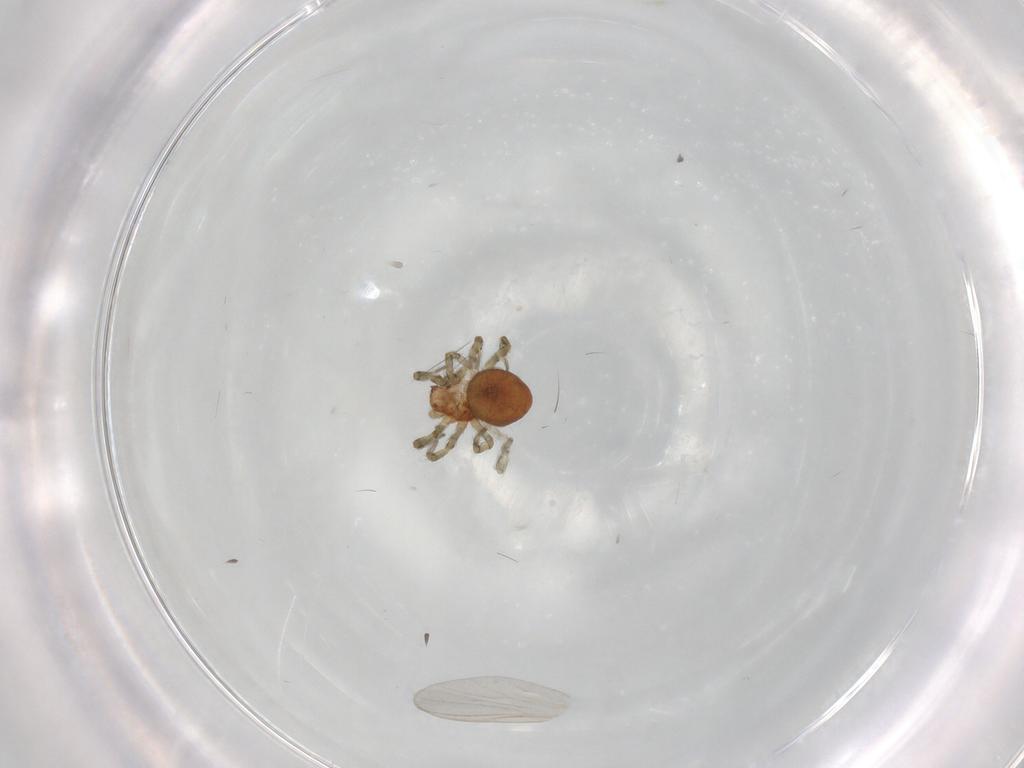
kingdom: Animalia
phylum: Arthropoda
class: Arachnida
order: Araneae
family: Dictynidae
